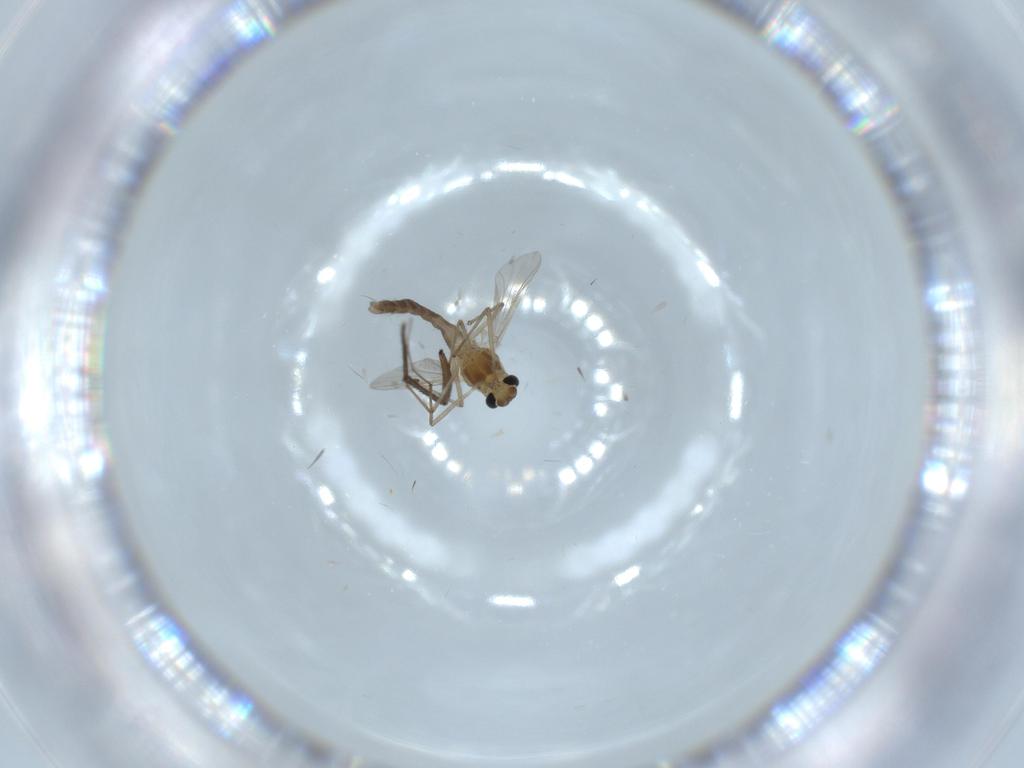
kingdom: Animalia
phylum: Arthropoda
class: Insecta
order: Diptera
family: Chironomidae
